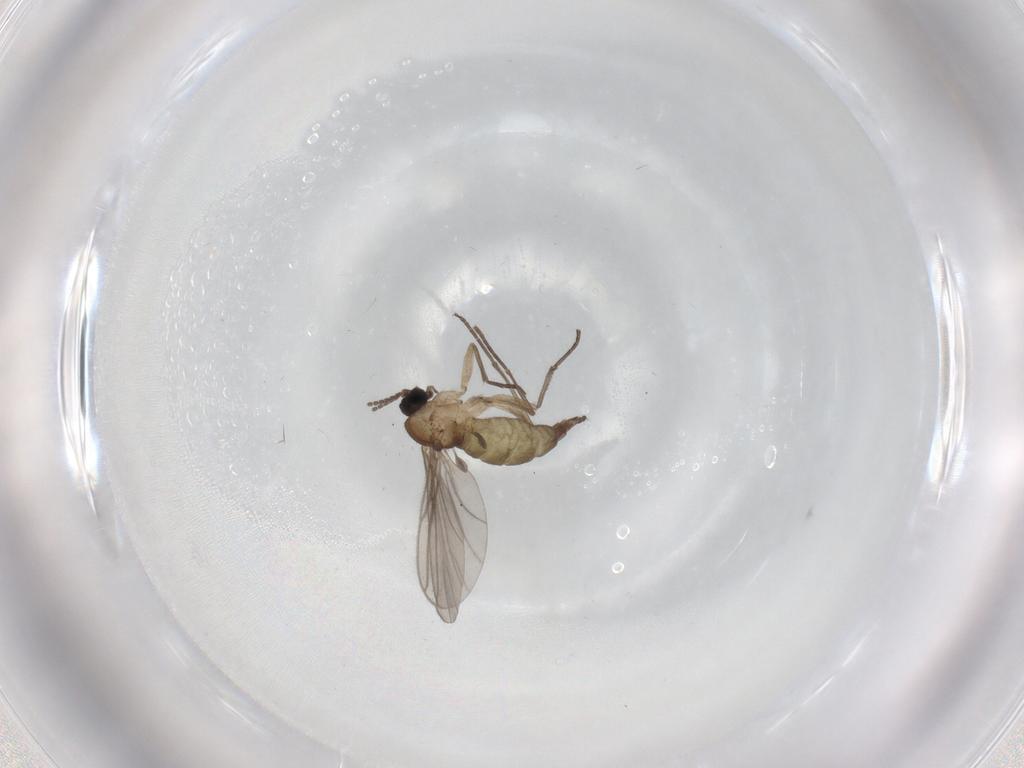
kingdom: Animalia
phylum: Arthropoda
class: Insecta
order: Diptera
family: Sciaridae
